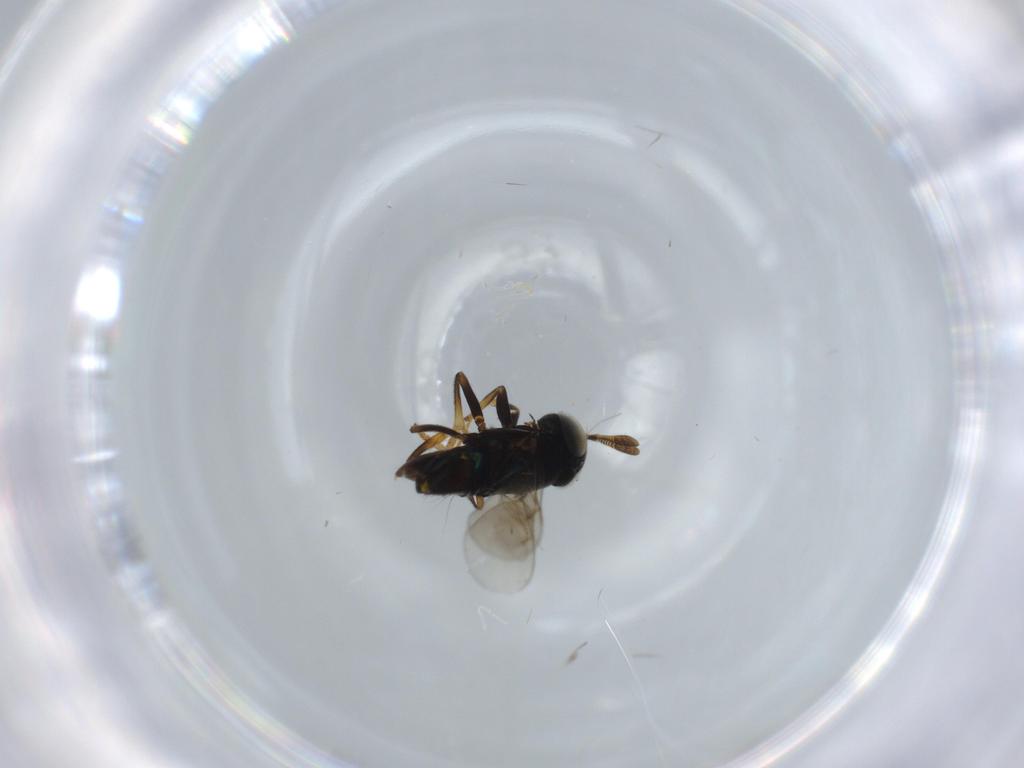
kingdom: Animalia
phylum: Arthropoda
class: Insecta
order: Hymenoptera
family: Encyrtidae
